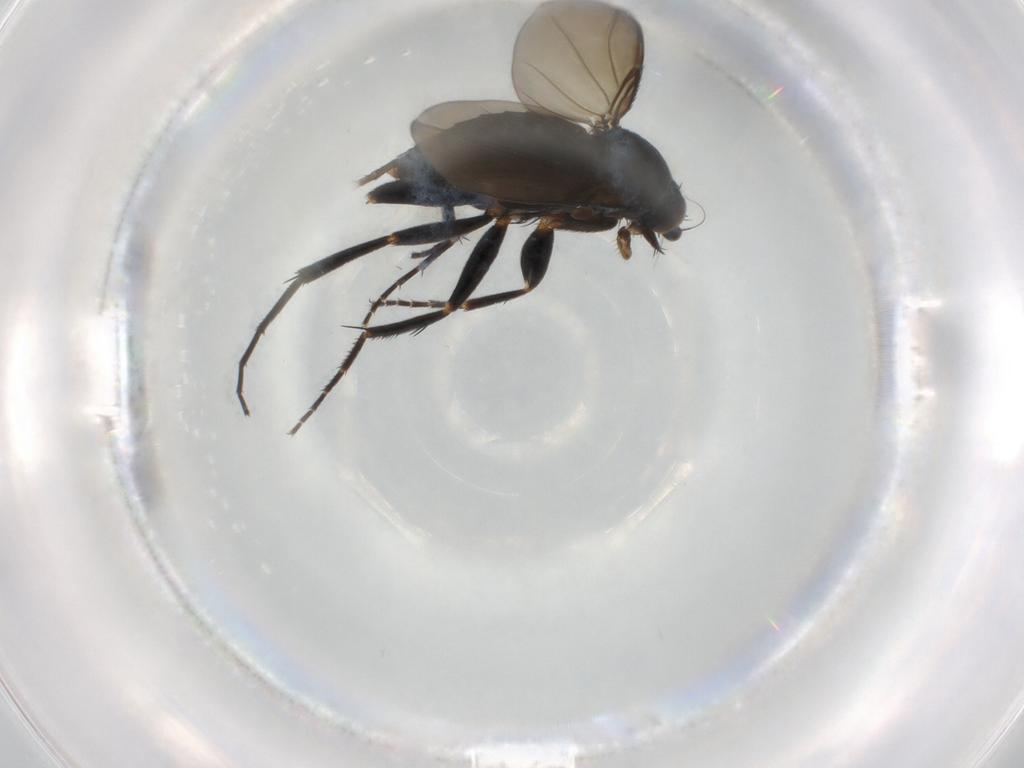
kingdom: Animalia
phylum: Arthropoda
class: Insecta
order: Diptera
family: Phoridae
